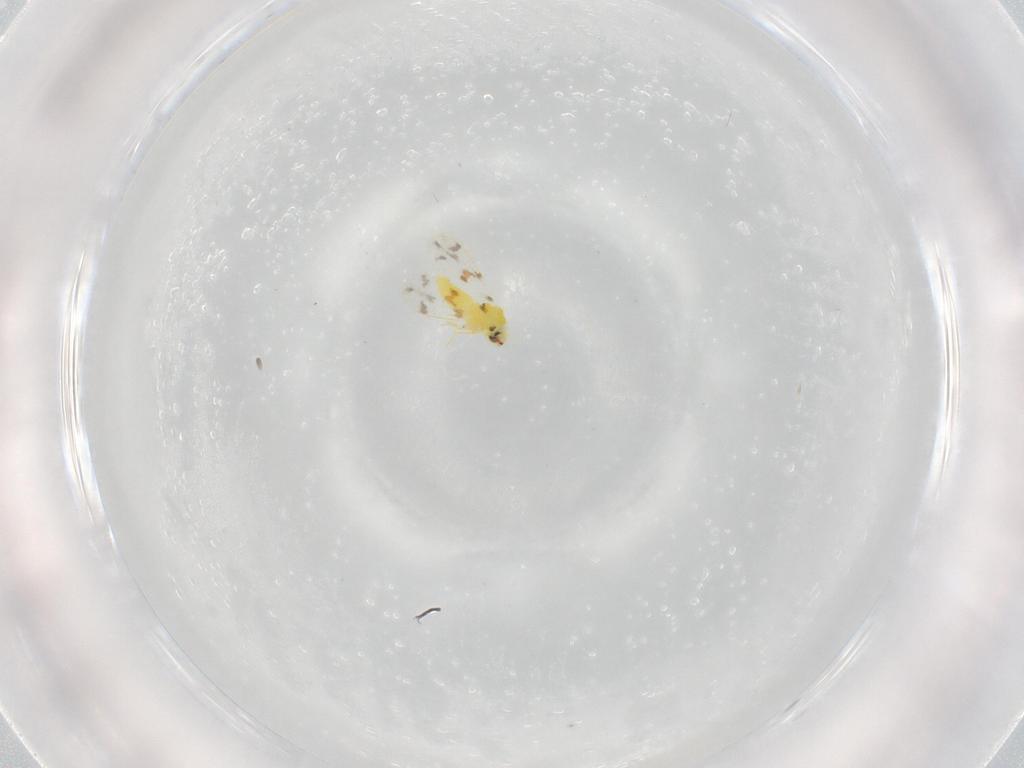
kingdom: Animalia
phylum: Arthropoda
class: Insecta
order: Hemiptera
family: Aleyrodidae
